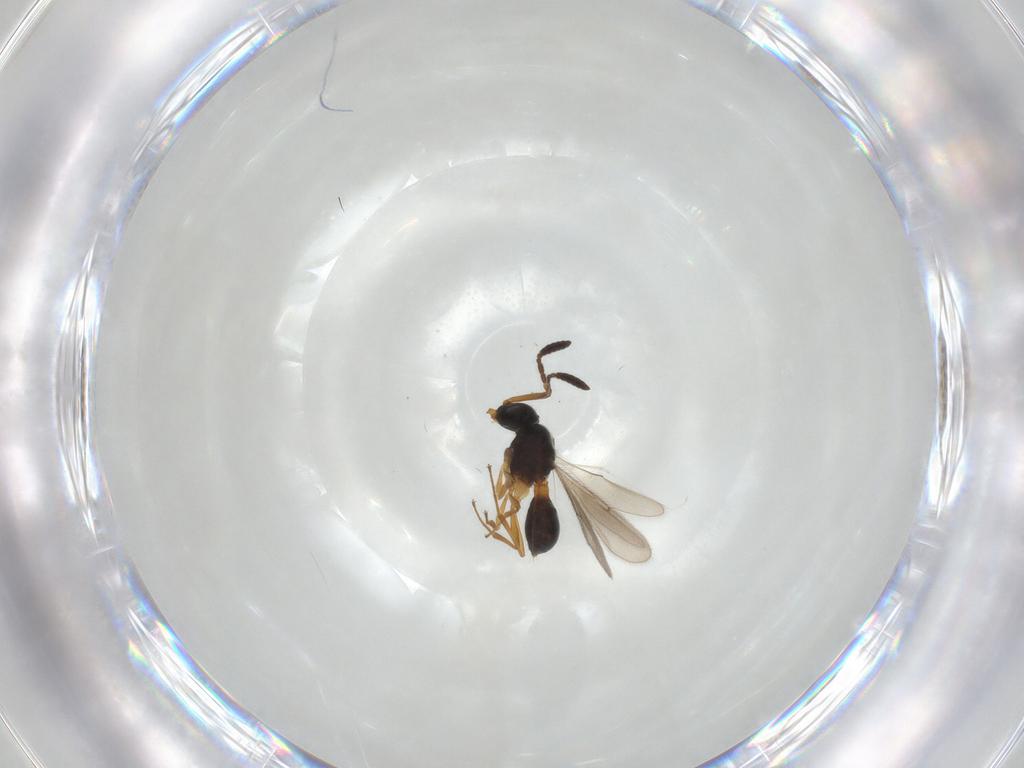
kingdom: Animalia
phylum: Arthropoda
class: Insecta
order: Hymenoptera
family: Scelionidae
